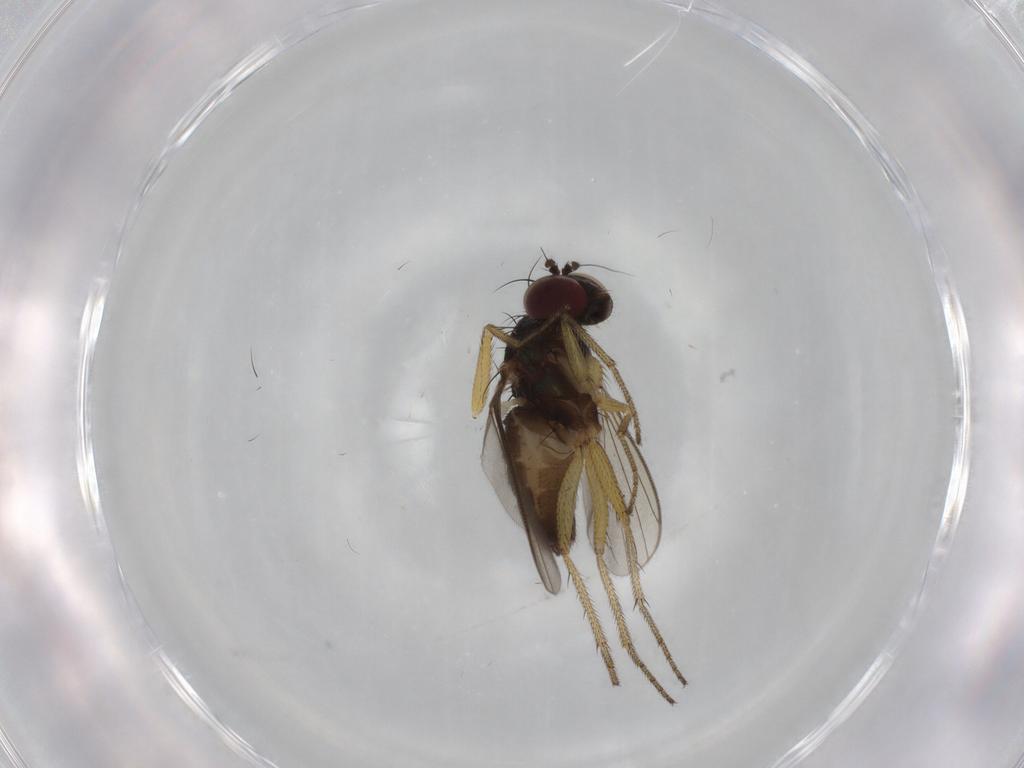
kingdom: Animalia
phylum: Arthropoda
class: Insecta
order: Diptera
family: Dolichopodidae
